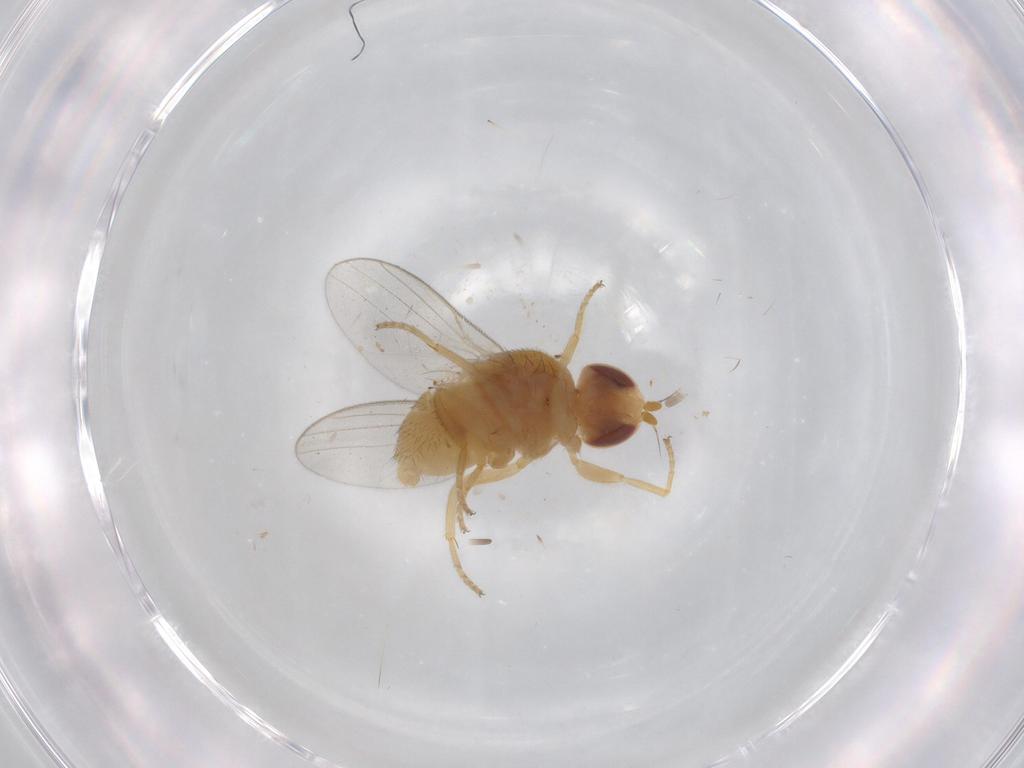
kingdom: Animalia
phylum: Arthropoda
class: Insecta
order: Diptera
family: Chloropidae
